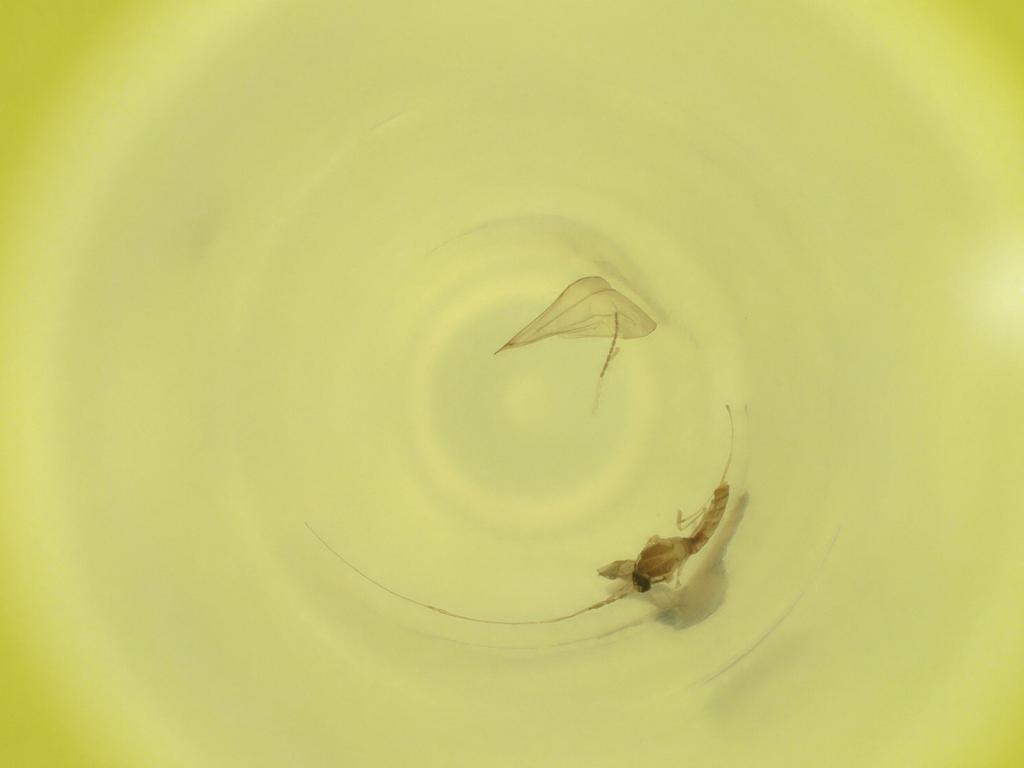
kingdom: Animalia
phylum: Arthropoda
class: Insecta
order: Diptera
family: Cecidomyiidae
